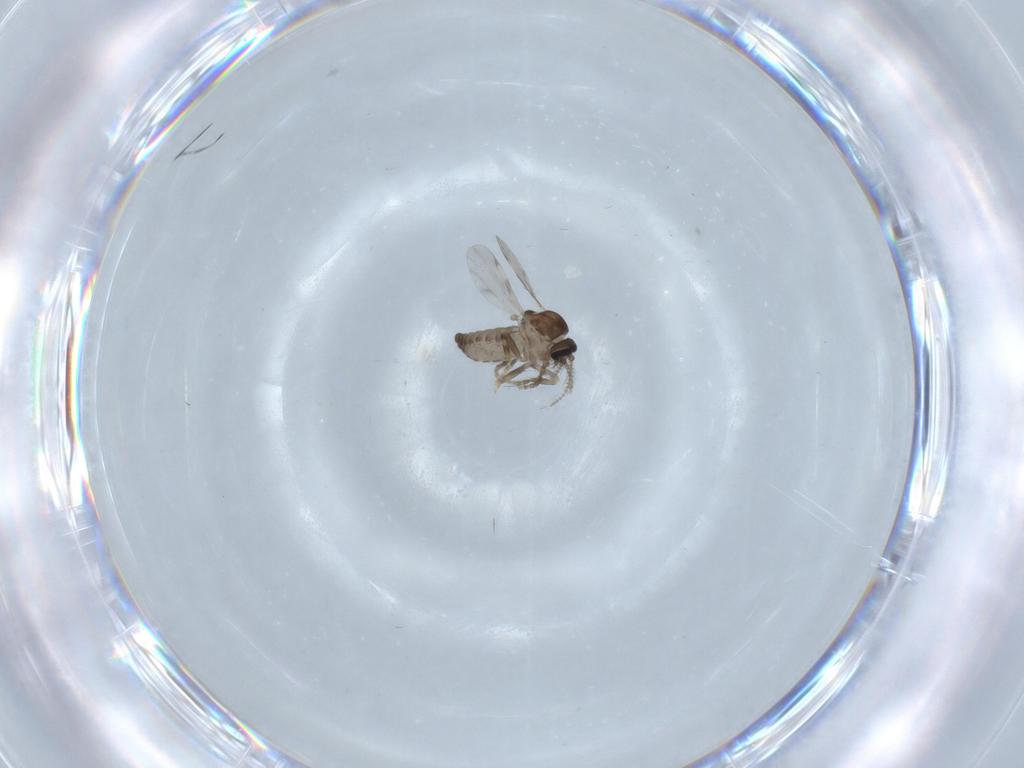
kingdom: Animalia
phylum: Arthropoda
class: Insecta
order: Diptera
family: Ceratopogonidae
